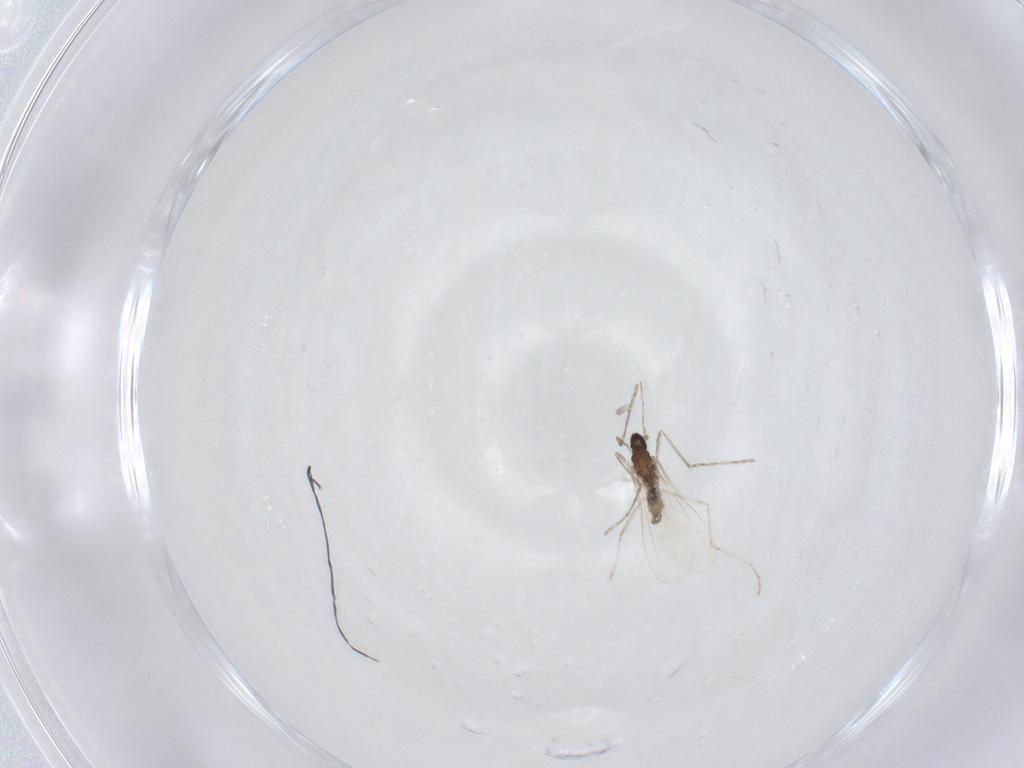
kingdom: Animalia
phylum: Arthropoda
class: Insecta
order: Diptera
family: Cecidomyiidae
